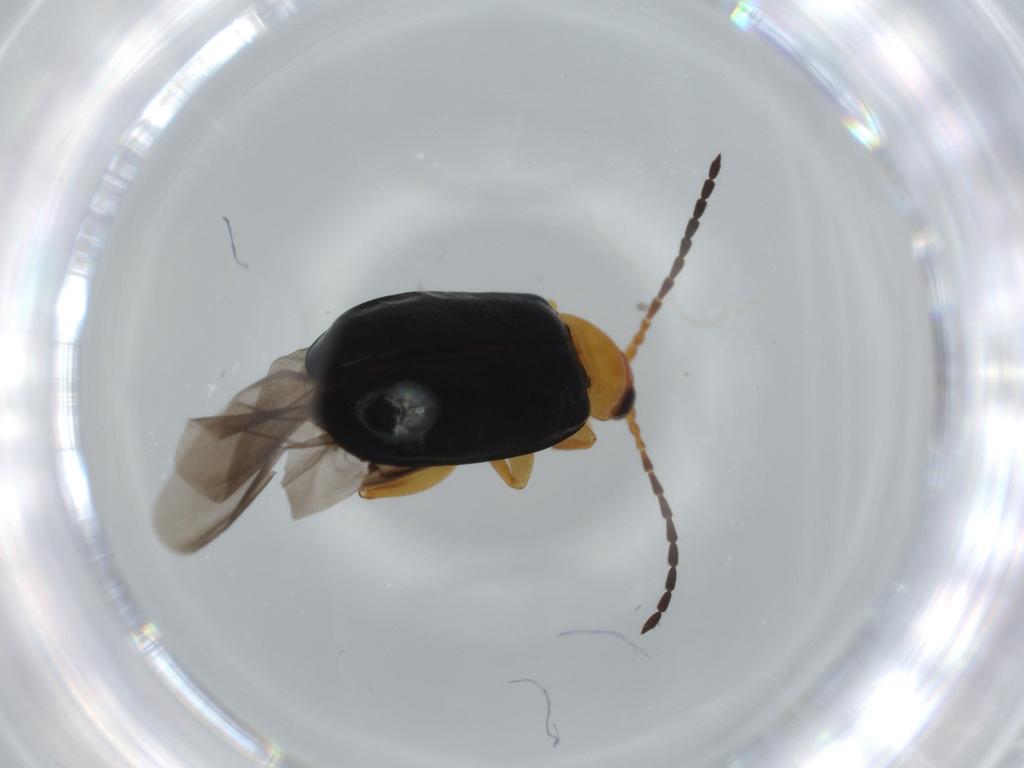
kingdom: Animalia
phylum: Arthropoda
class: Insecta
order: Coleoptera
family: Chrysomelidae
